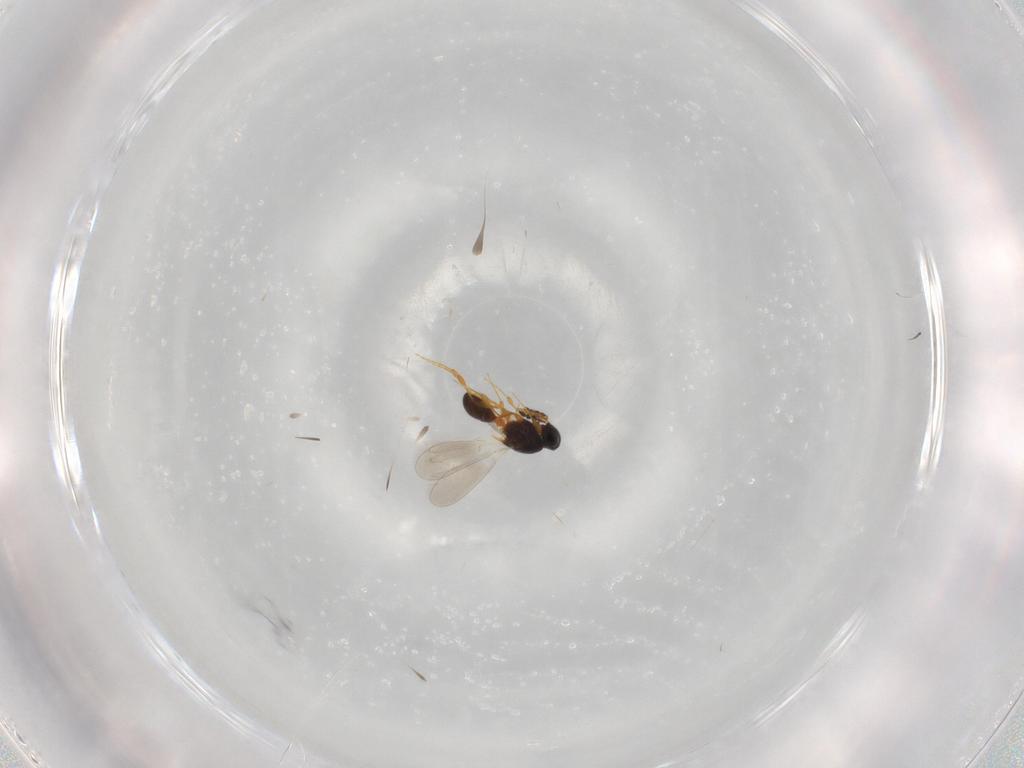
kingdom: Animalia
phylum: Arthropoda
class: Insecta
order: Hymenoptera
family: Platygastridae
